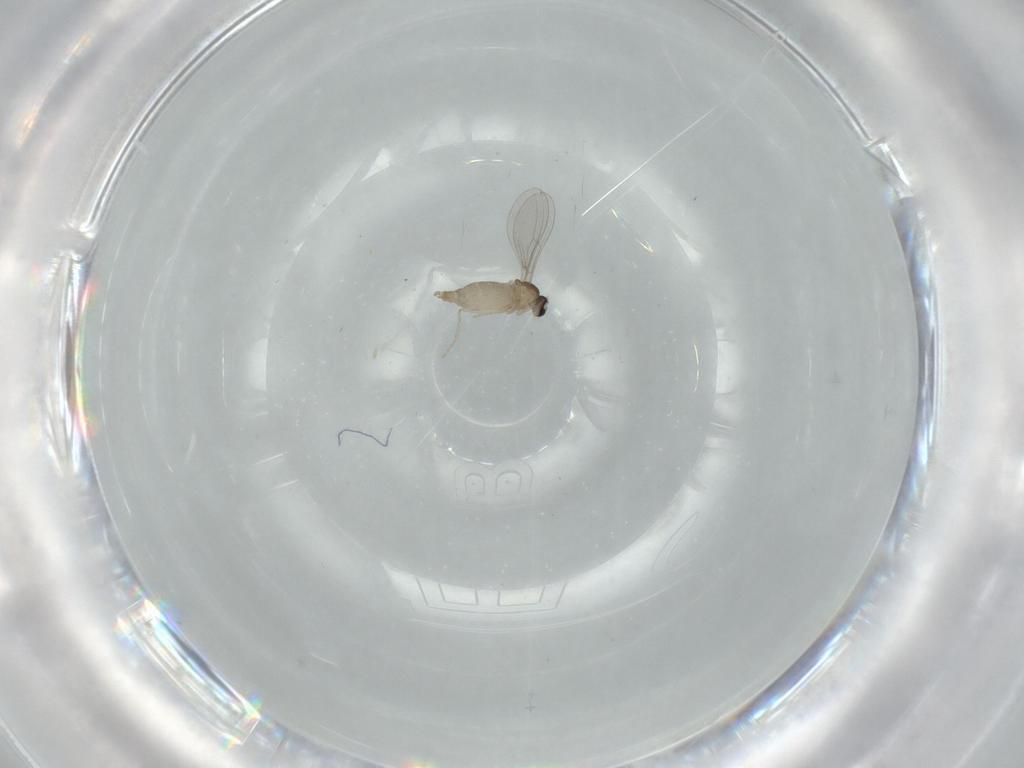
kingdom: Animalia
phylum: Arthropoda
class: Insecta
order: Diptera
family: Cecidomyiidae
